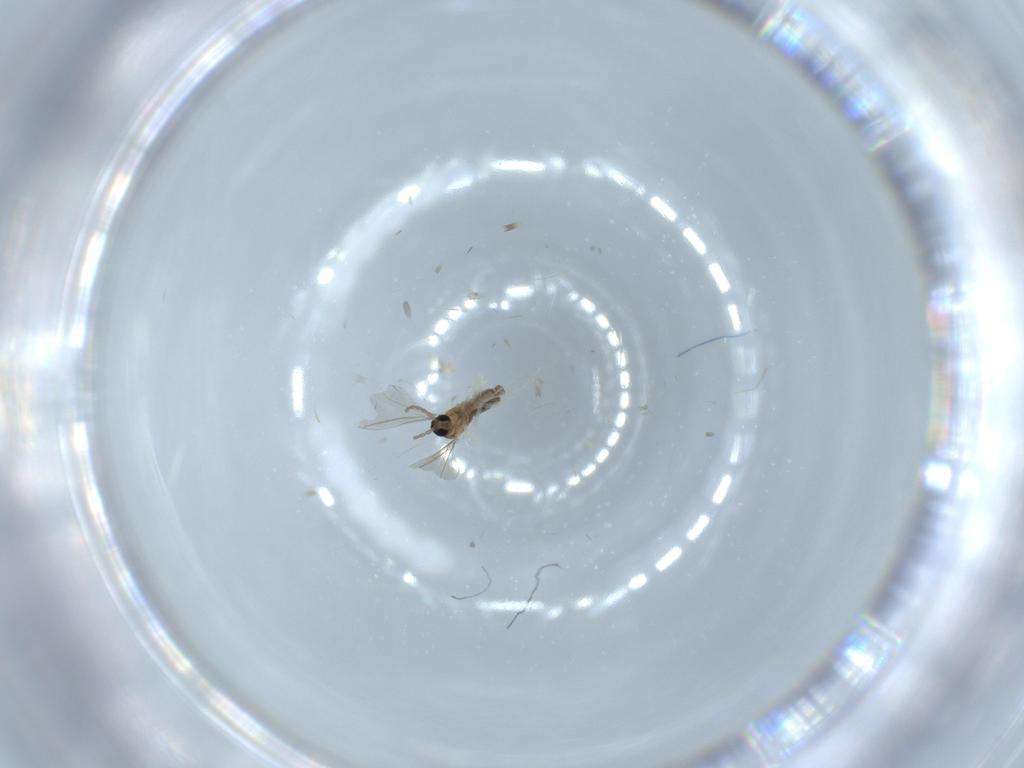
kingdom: Animalia
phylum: Arthropoda
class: Insecta
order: Diptera
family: Cecidomyiidae
